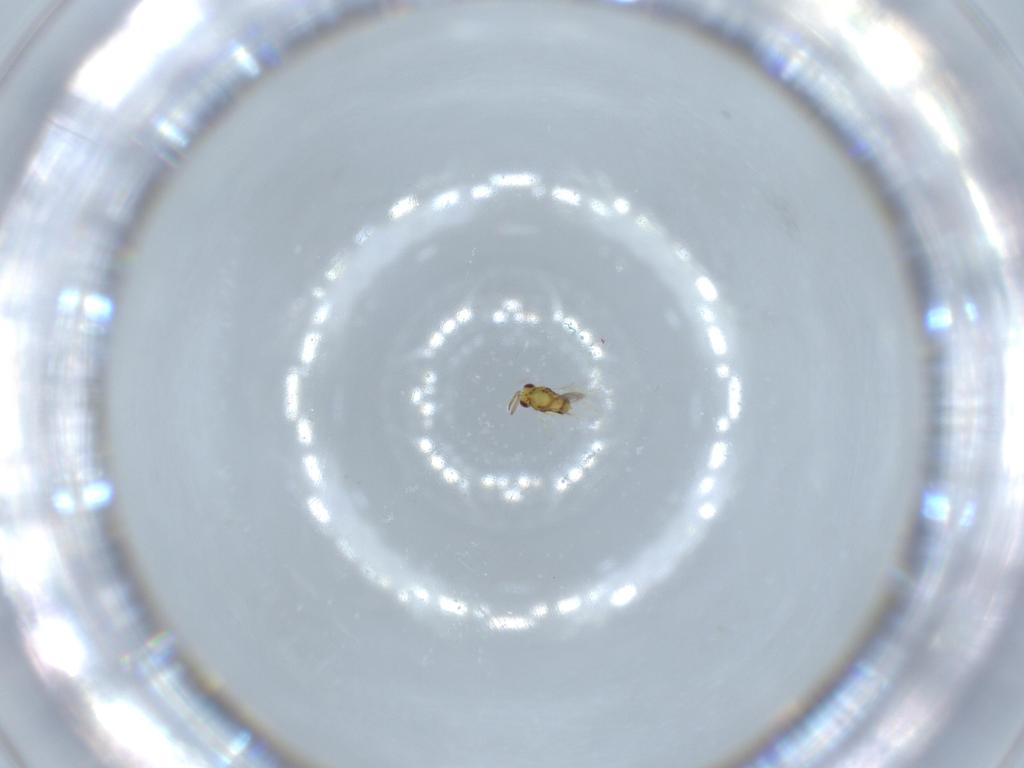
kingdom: Animalia
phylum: Arthropoda
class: Insecta
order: Hymenoptera
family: Aphelinidae
